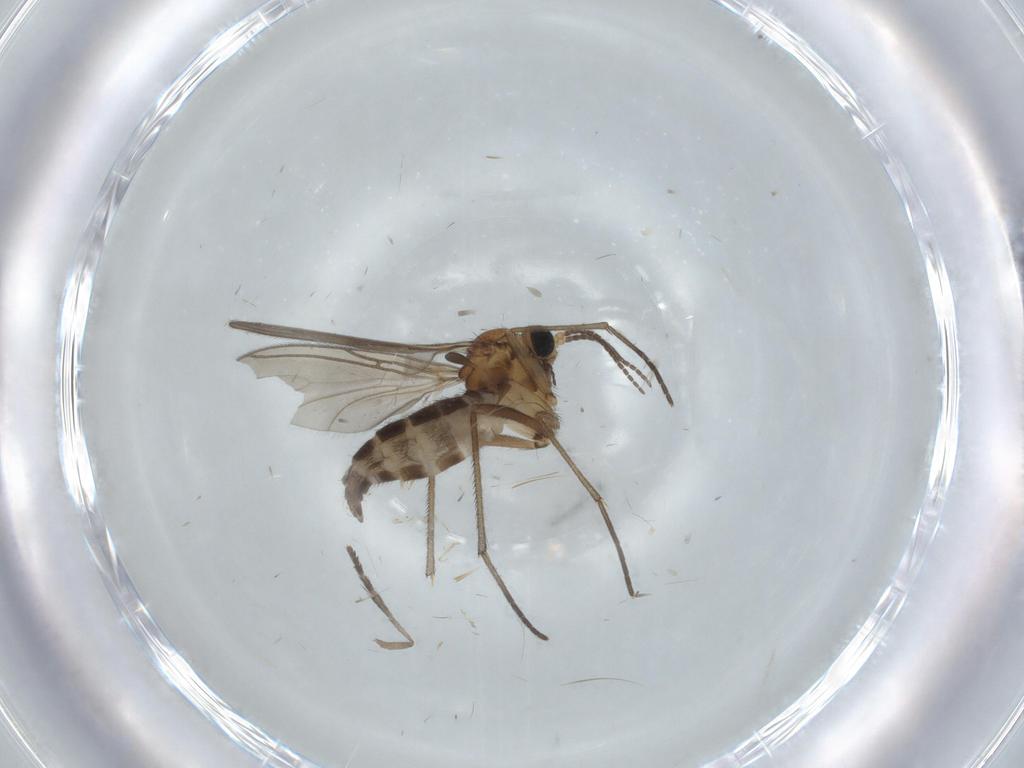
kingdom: Animalia
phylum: Arthropoda
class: Insecta
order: Diptera
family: Sciaridae
